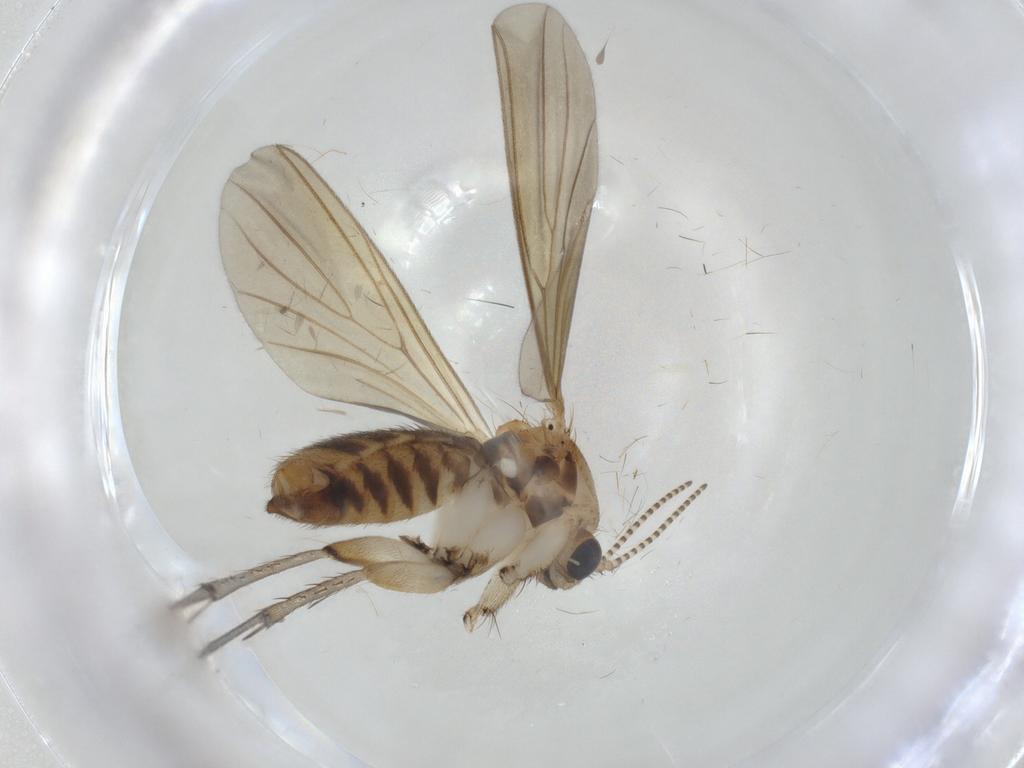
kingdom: Animalia
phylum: Arthropoda
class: Insecta
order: Diptera
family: Mycetophilidae
